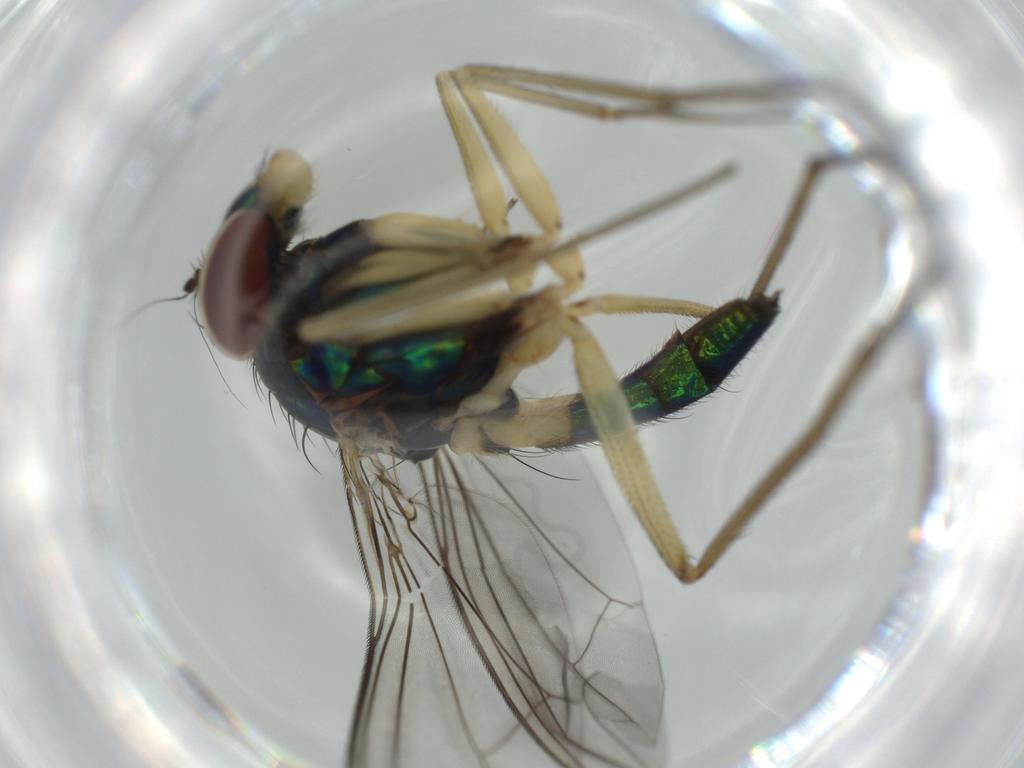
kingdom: Animalia
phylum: Arthropoda
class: Insecta
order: Diptera
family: Dolichopodidae
